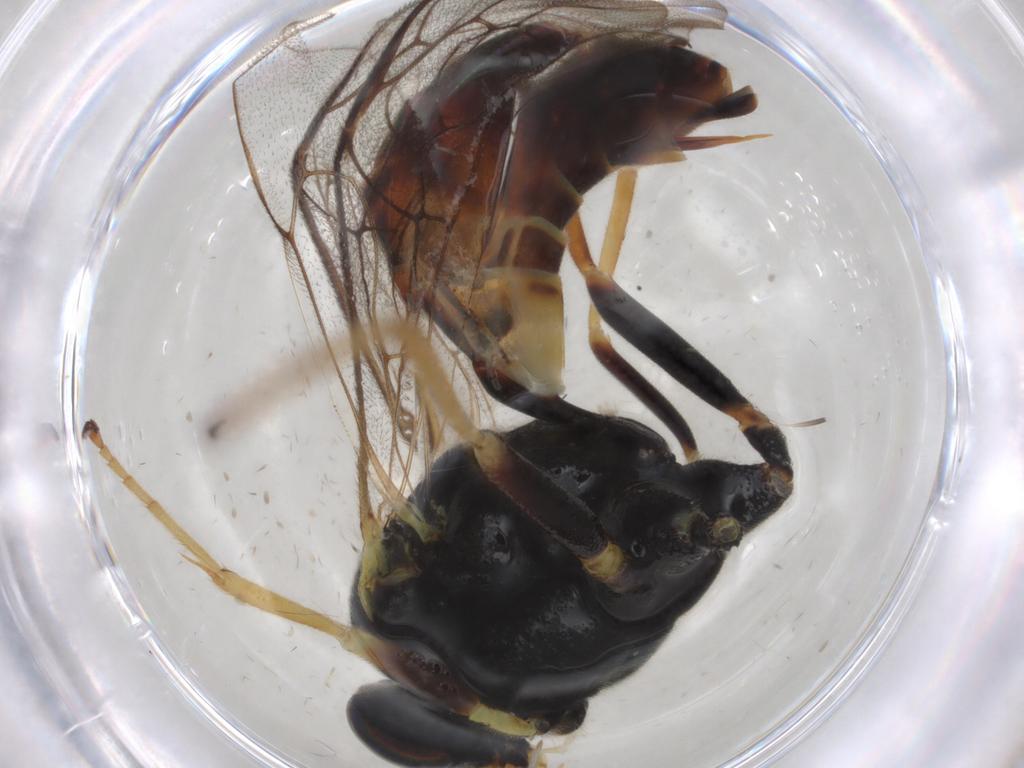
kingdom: Animalia
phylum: Arthropoda
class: Insecta
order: Hymenoptera
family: Ichneumonidae
